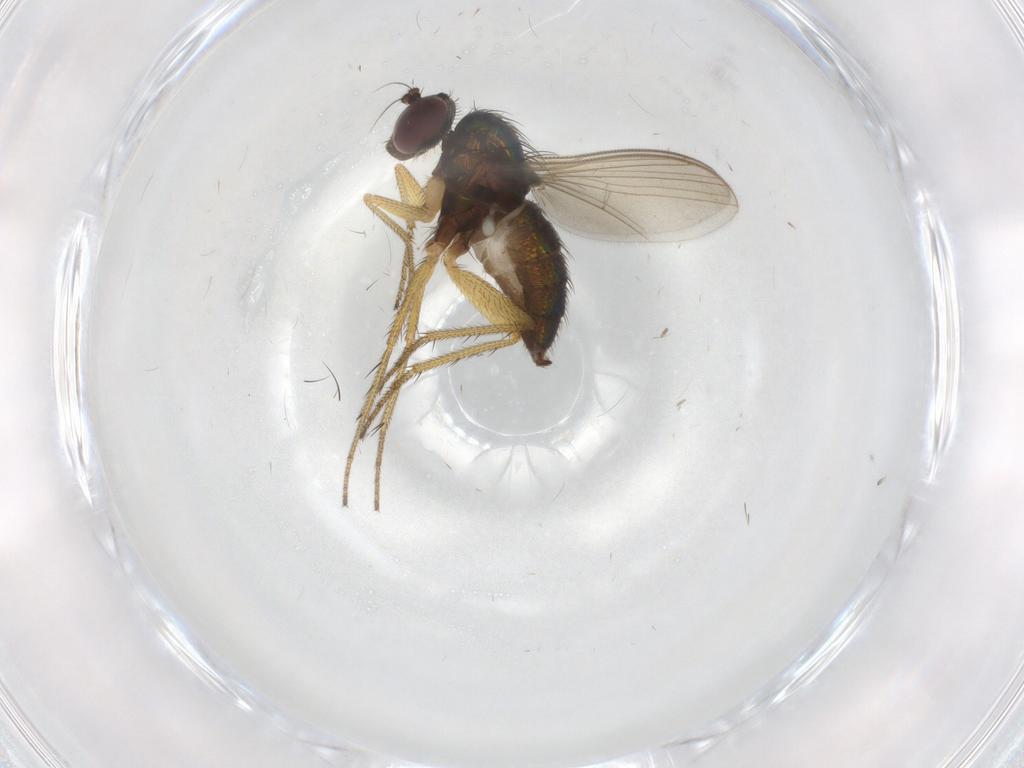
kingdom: Animalia
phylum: Arthropoda
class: Insecta
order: Diptera
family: Dolichopodidae
